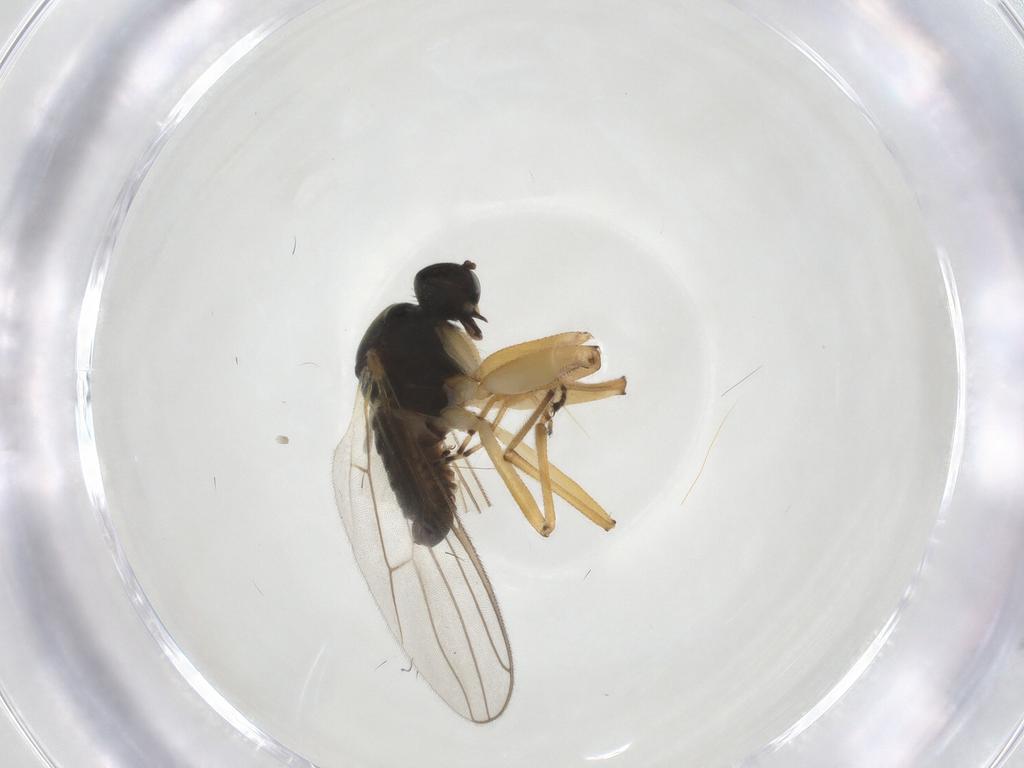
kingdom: Animalia
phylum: Arthropoda
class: Insecta
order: Diptera
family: Hybotidae
